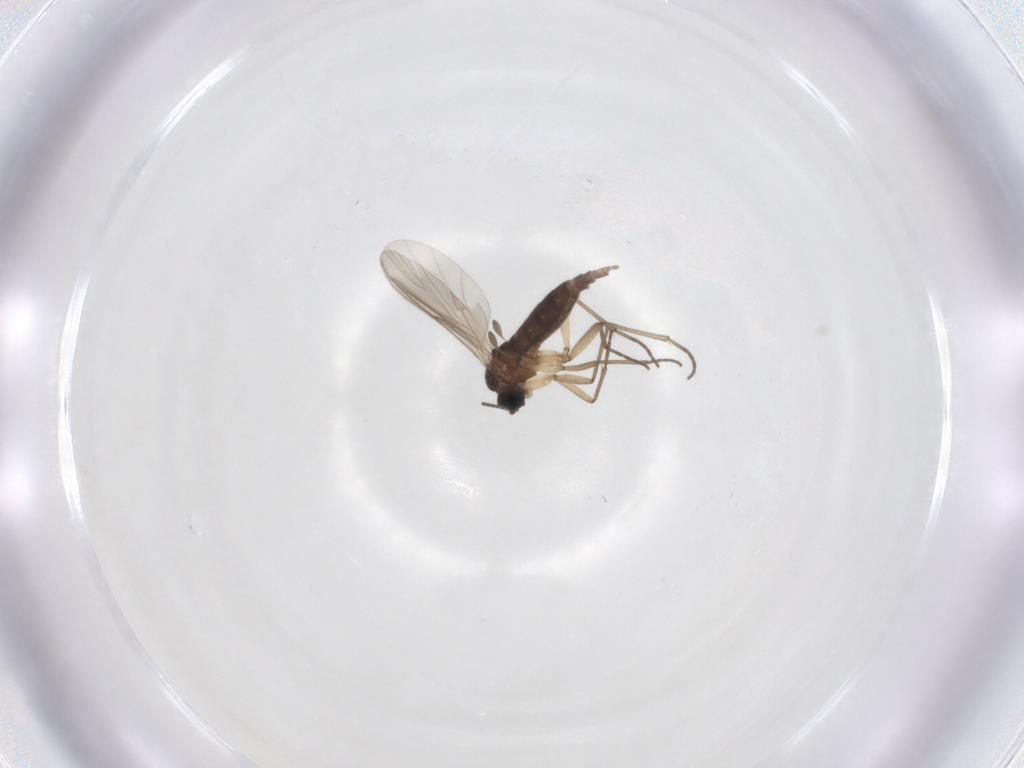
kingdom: Animalia
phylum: Arthropoda
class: Insecta
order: Diptera
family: Sciaridae
